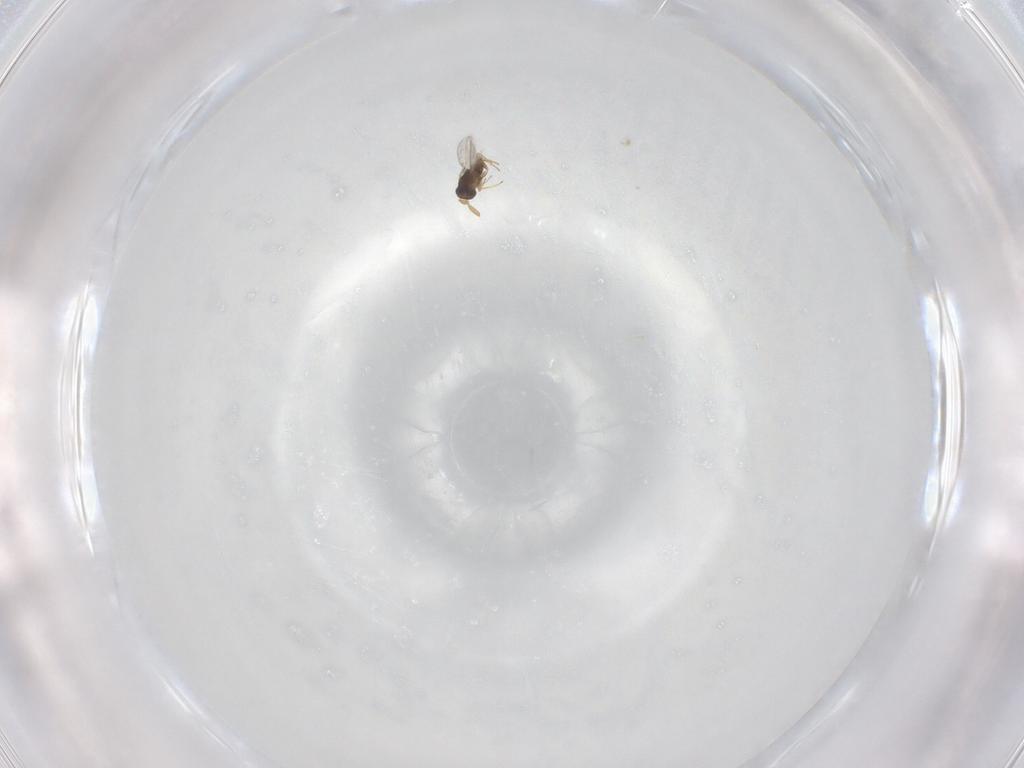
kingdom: Animalia
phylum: Arthropoda
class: Insecta
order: Hymenoptera
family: Encyrtidae
